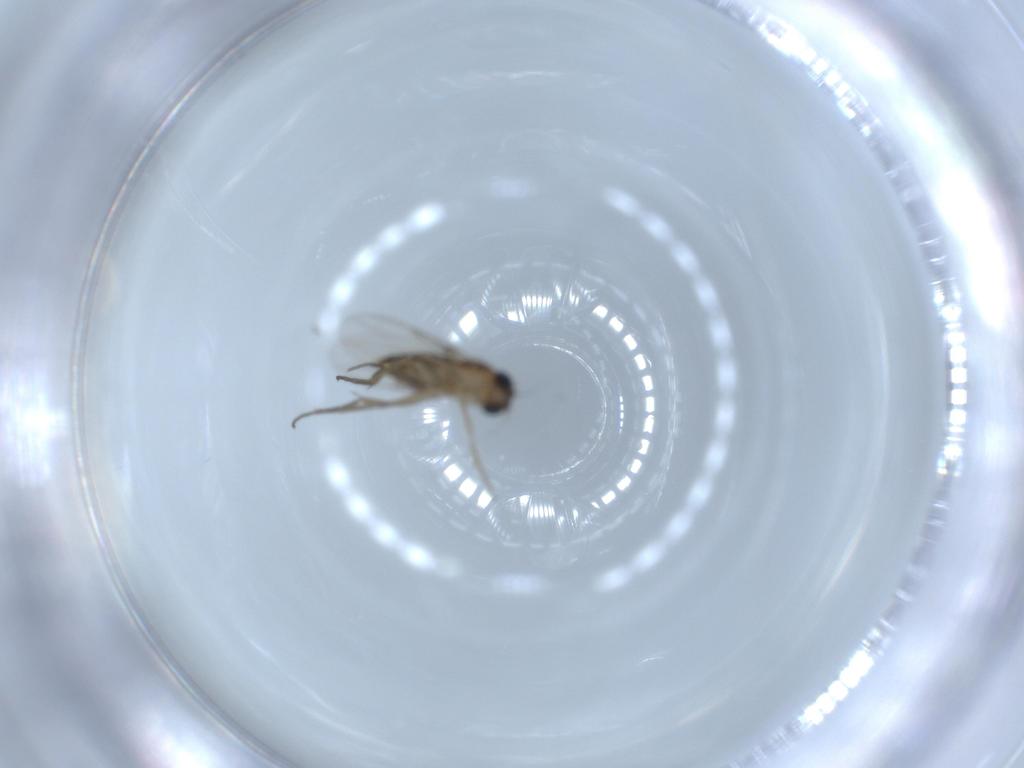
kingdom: Animalia
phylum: Arthropoda
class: Insecta
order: Diptera
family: Phoridae
